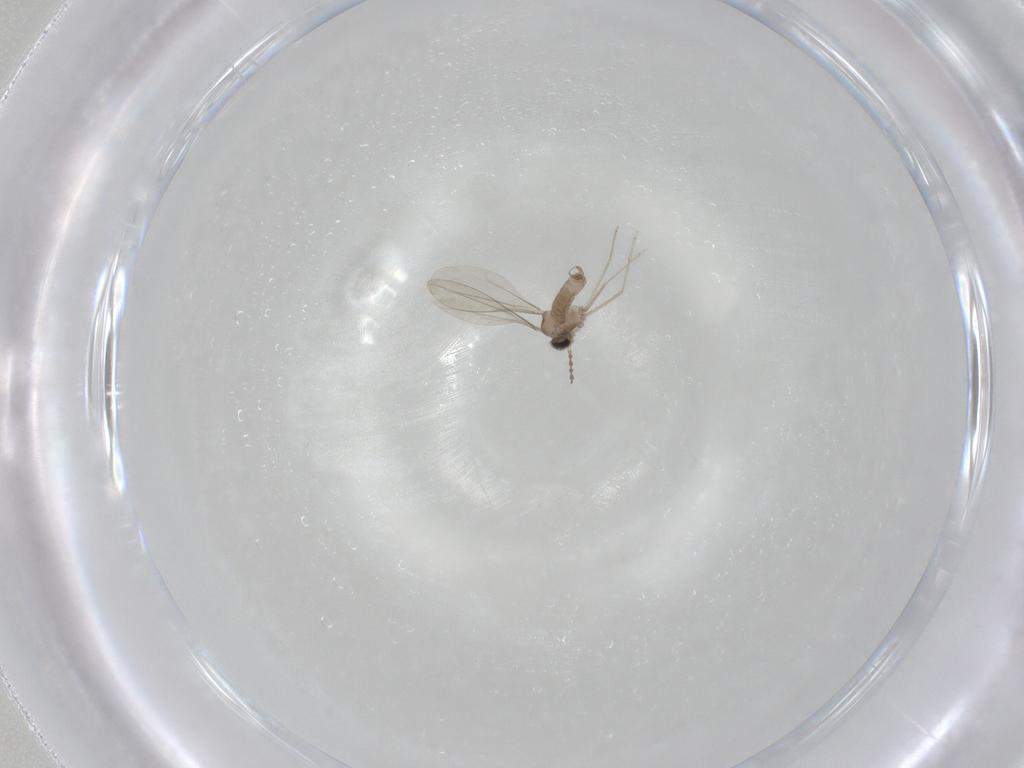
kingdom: Animalia
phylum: Arthropoda
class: Insecta
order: Diptera
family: Cecidomyiidae
